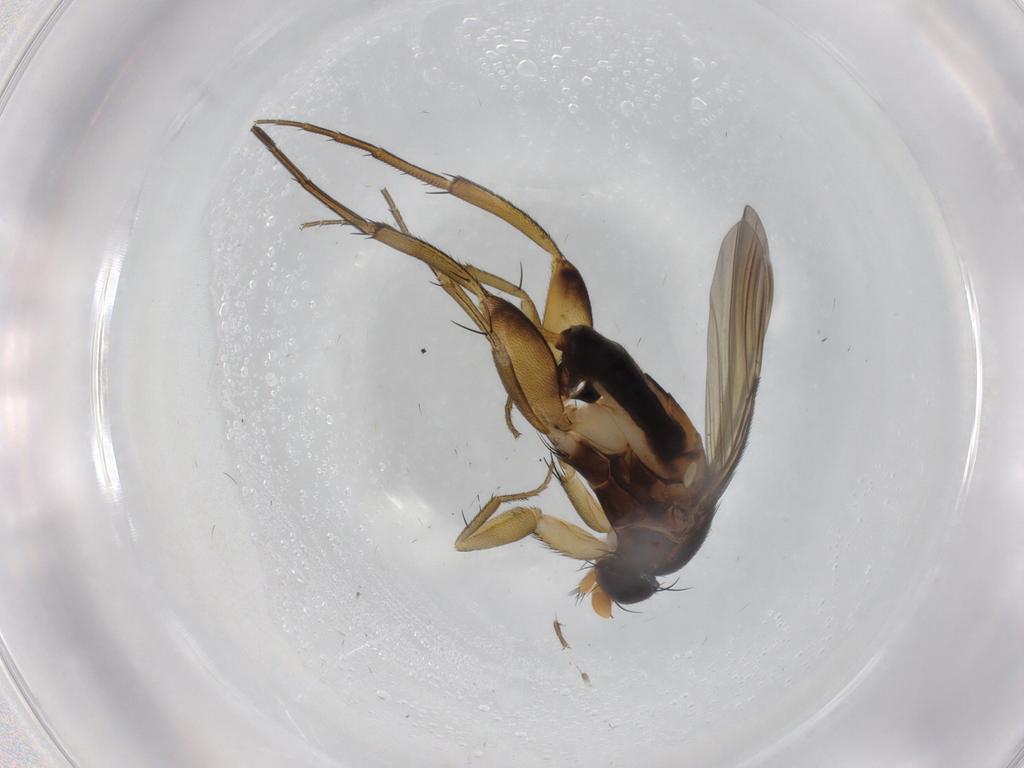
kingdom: Animalia
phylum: Arthropoda
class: Insecta
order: Diptera
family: Phoridae
